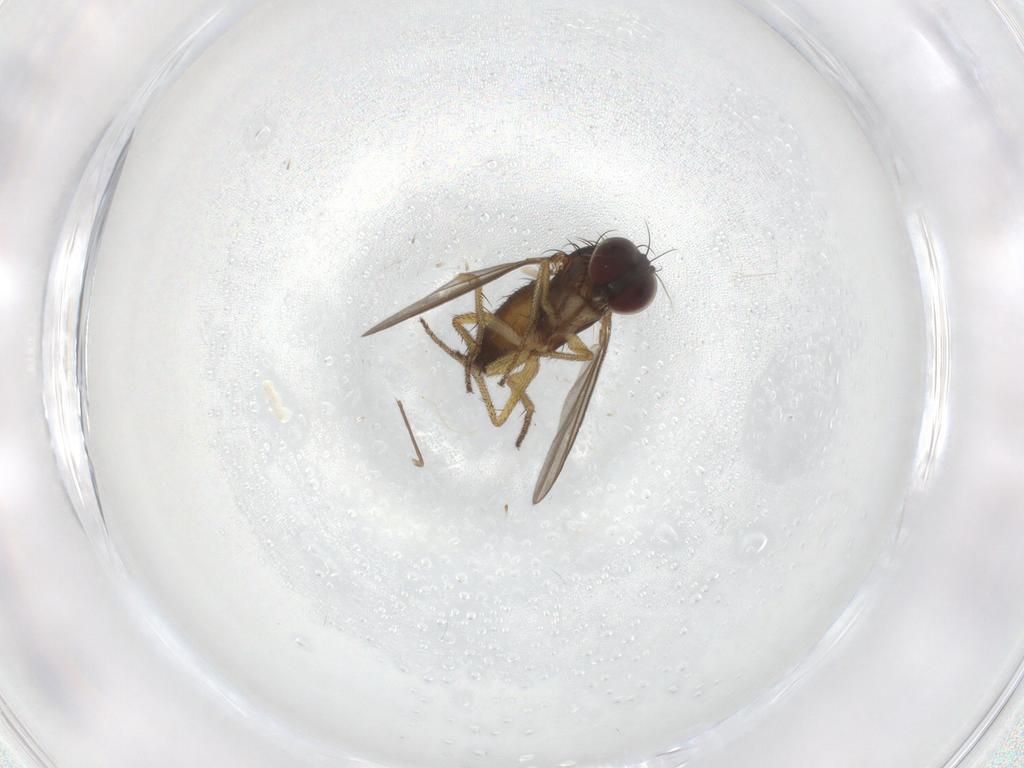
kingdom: Animalia
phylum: Arthropoda
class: Insecta
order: Diptera
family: Dolichopodidae
